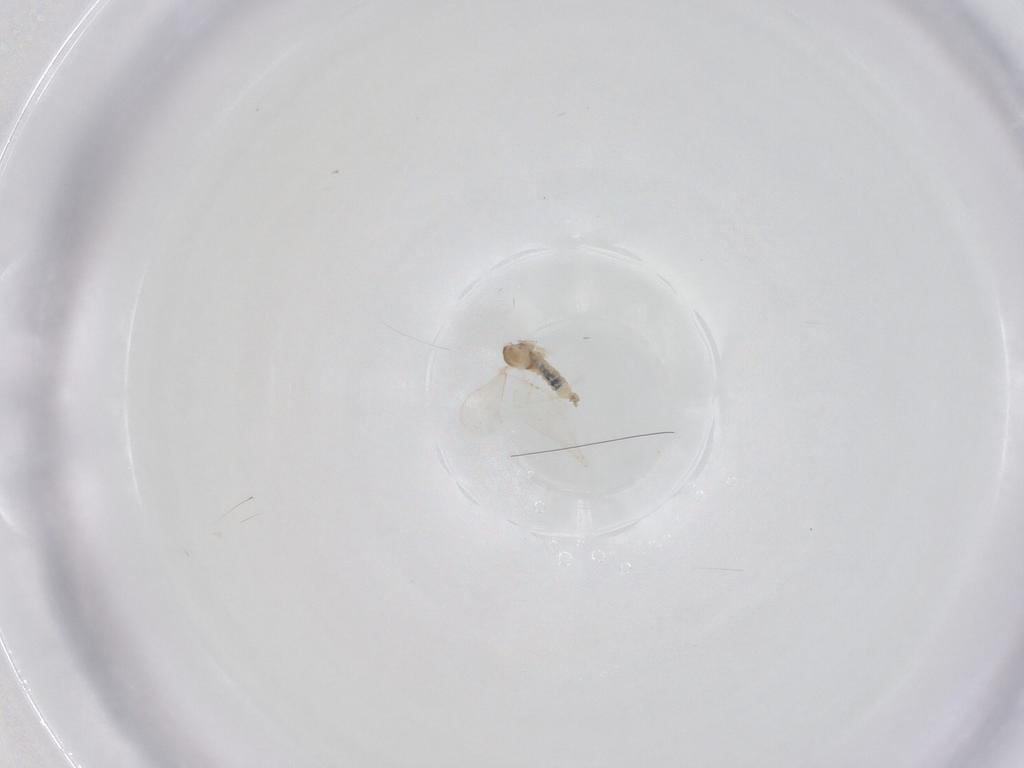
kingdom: Animalia
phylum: Arthropoda
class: Insecta
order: Diptera
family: Cecidomyiidae
